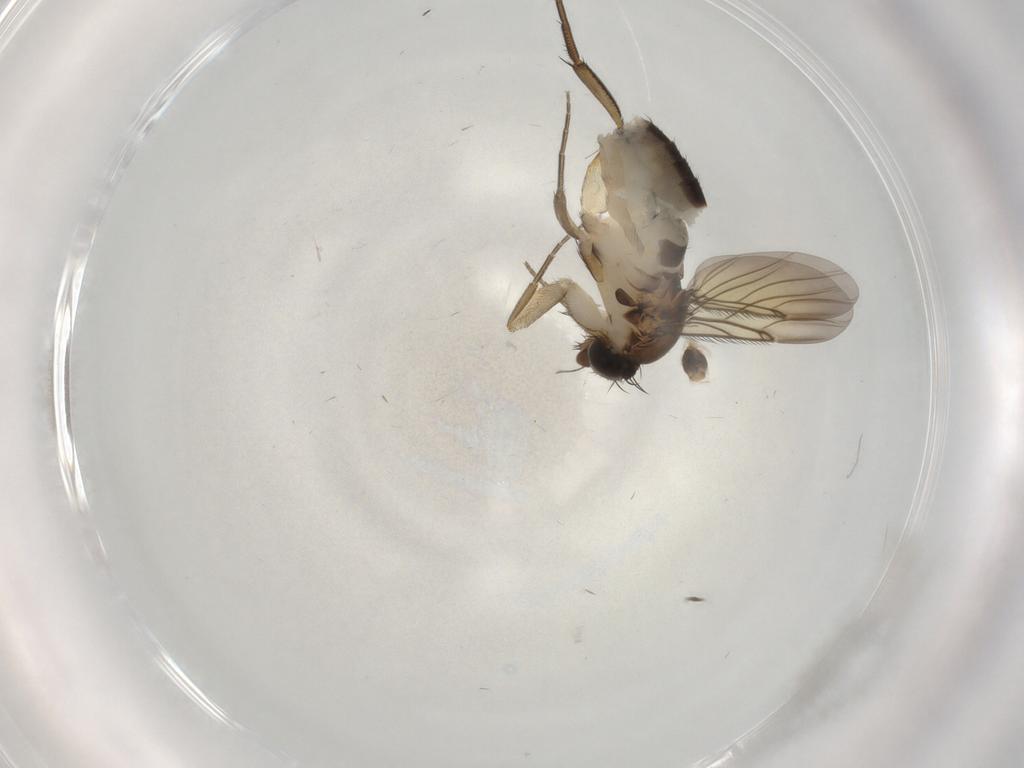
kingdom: Animalia
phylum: Arthropoda
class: Insecta
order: Diptera
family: Phoridae
